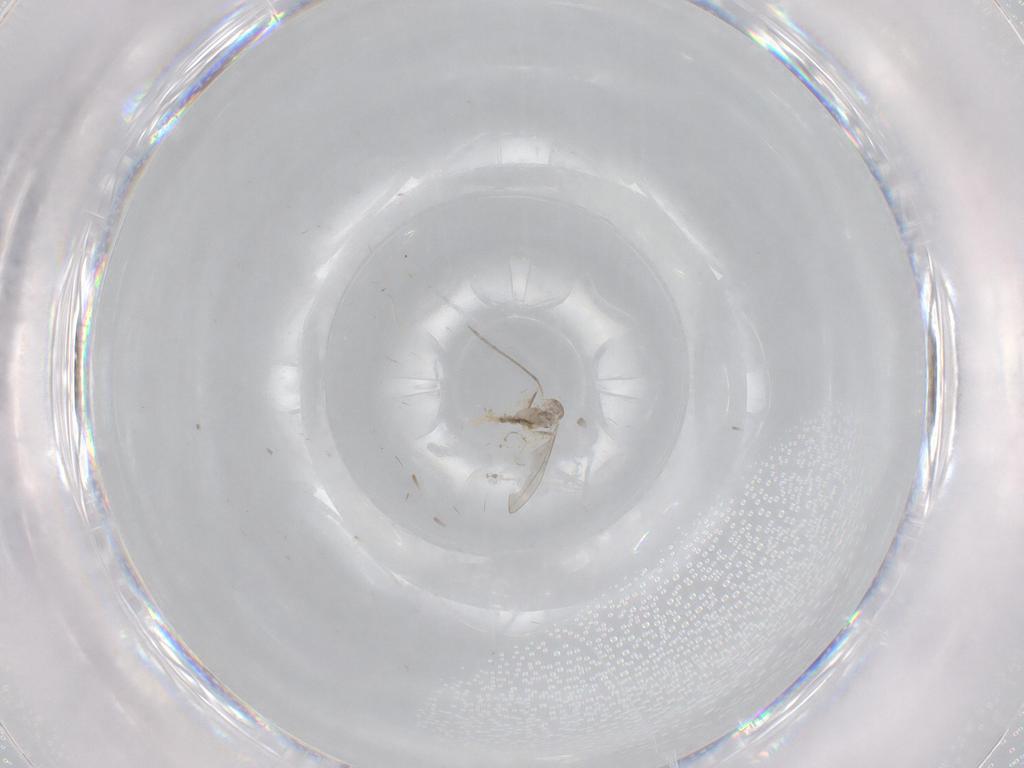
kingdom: Animalia
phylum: Arthropoda
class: Insecta
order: Diptera
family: Cecidomyiidae
